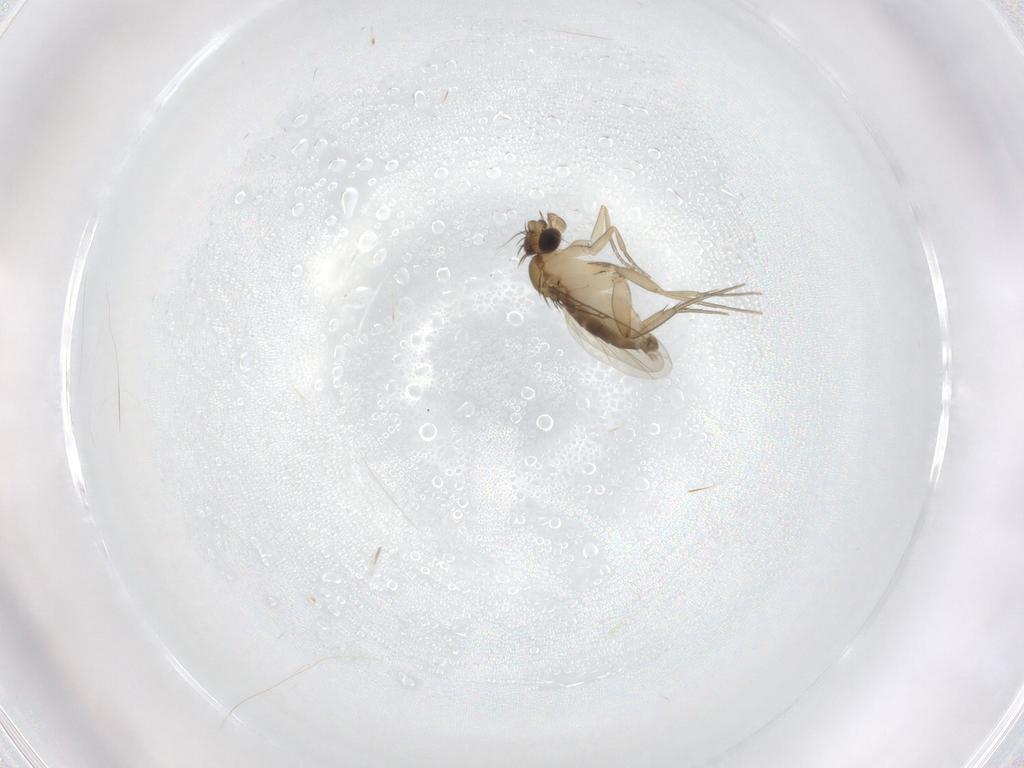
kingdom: Animalia
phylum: Arthropoda
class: Insecta
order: Diptera
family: Phoridae
